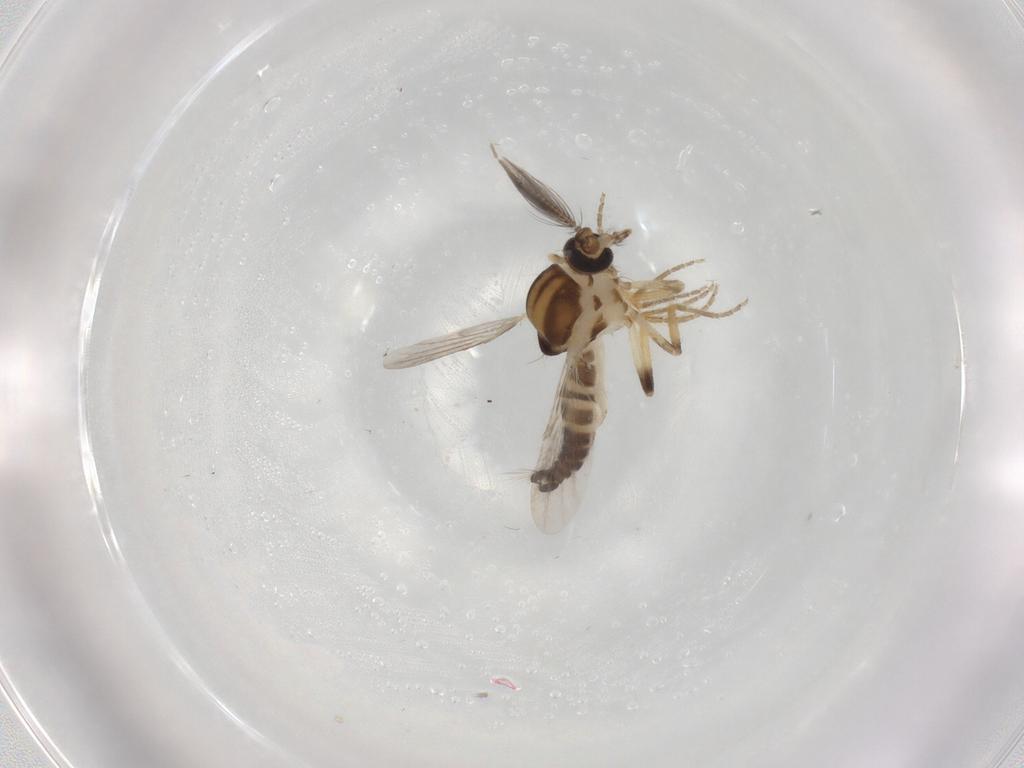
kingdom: Animalia
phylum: Arthropoda
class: Insecta
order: Diptera
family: Ceratopogonidae
